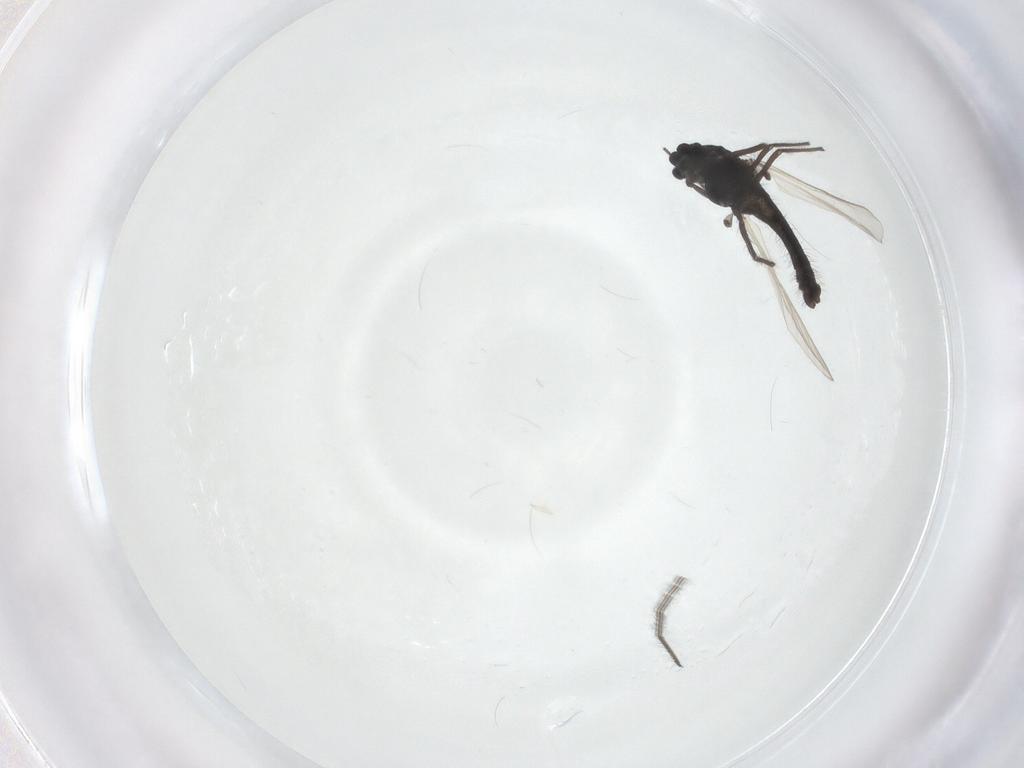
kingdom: Animalia
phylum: Arthropoda
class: Insecta
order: Diptera
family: Chironomidae
